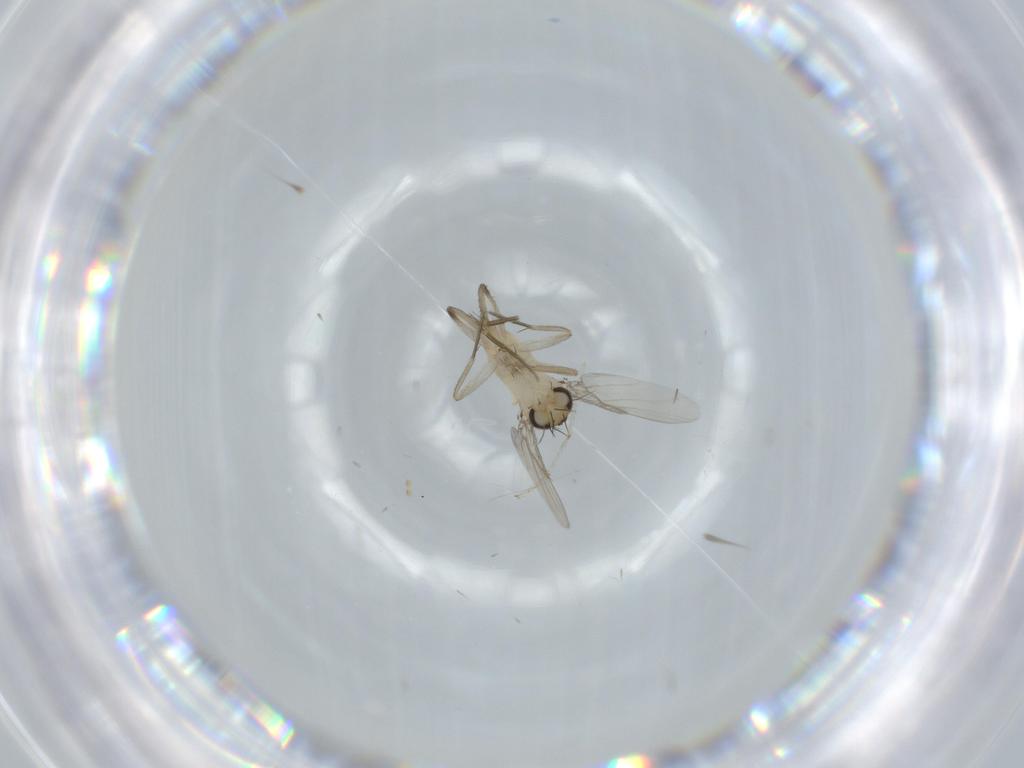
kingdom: Animalia
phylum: Arthropoda
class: Insecta
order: Diptera
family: Phoridae
